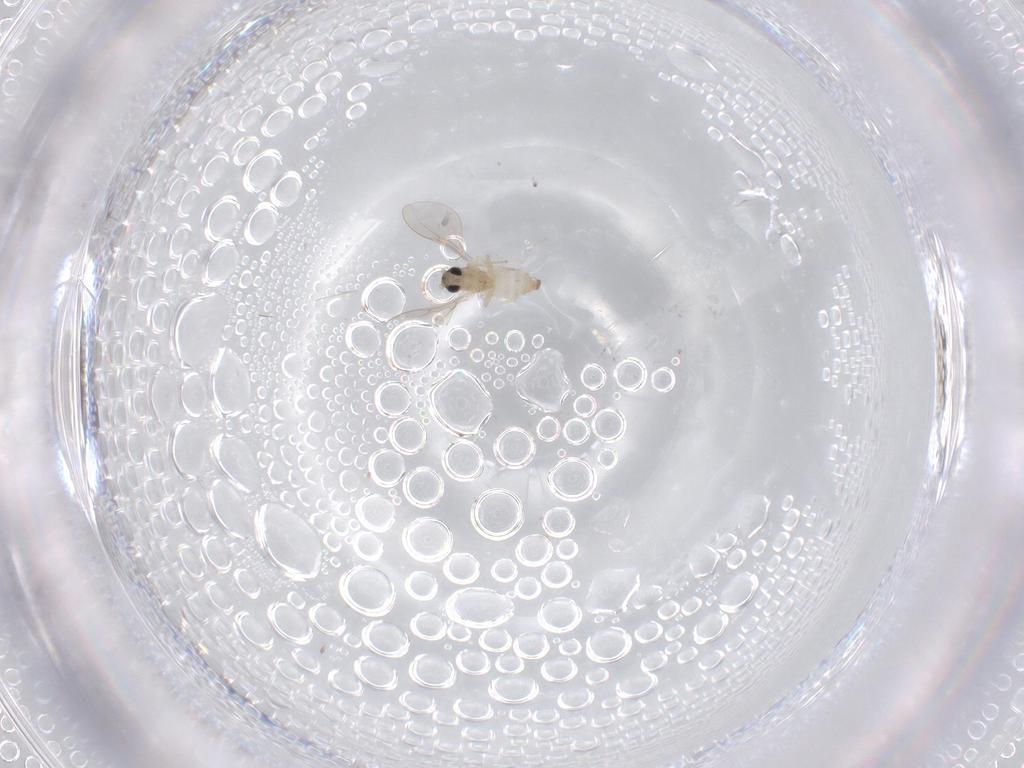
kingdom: Animalia
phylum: Arthropoda
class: Insecta
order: Diptera
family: Cecidomyiidae
